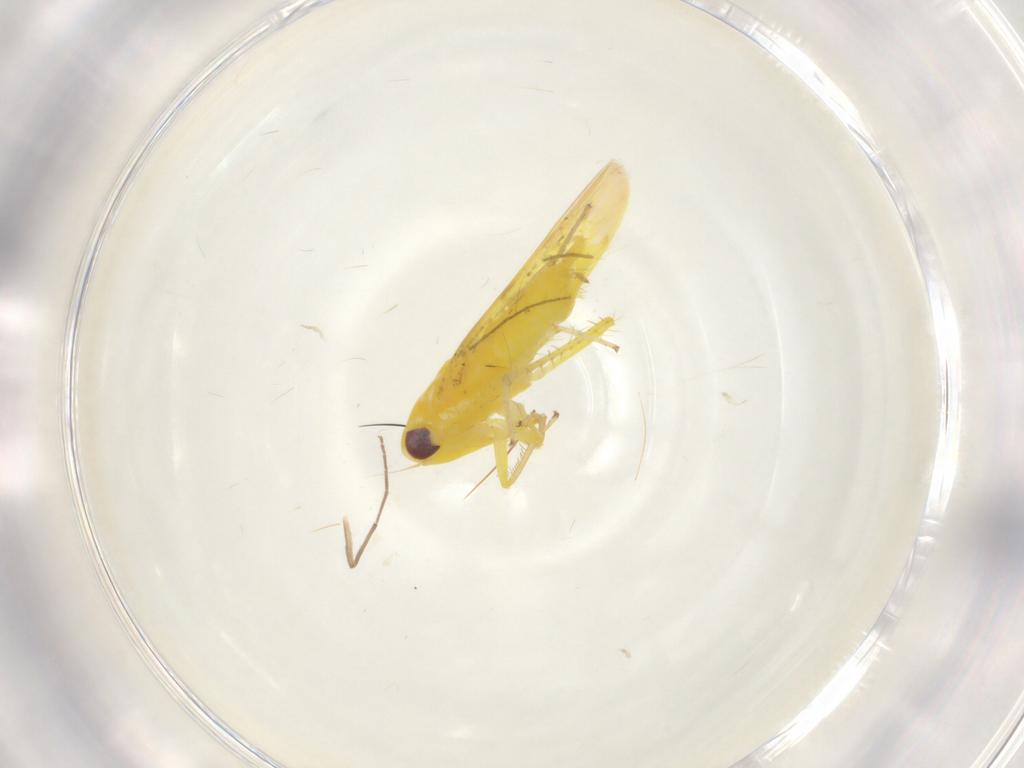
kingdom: Animalia
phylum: Arthropoda
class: Insecta
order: Hemiptera
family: Cicadellidae
